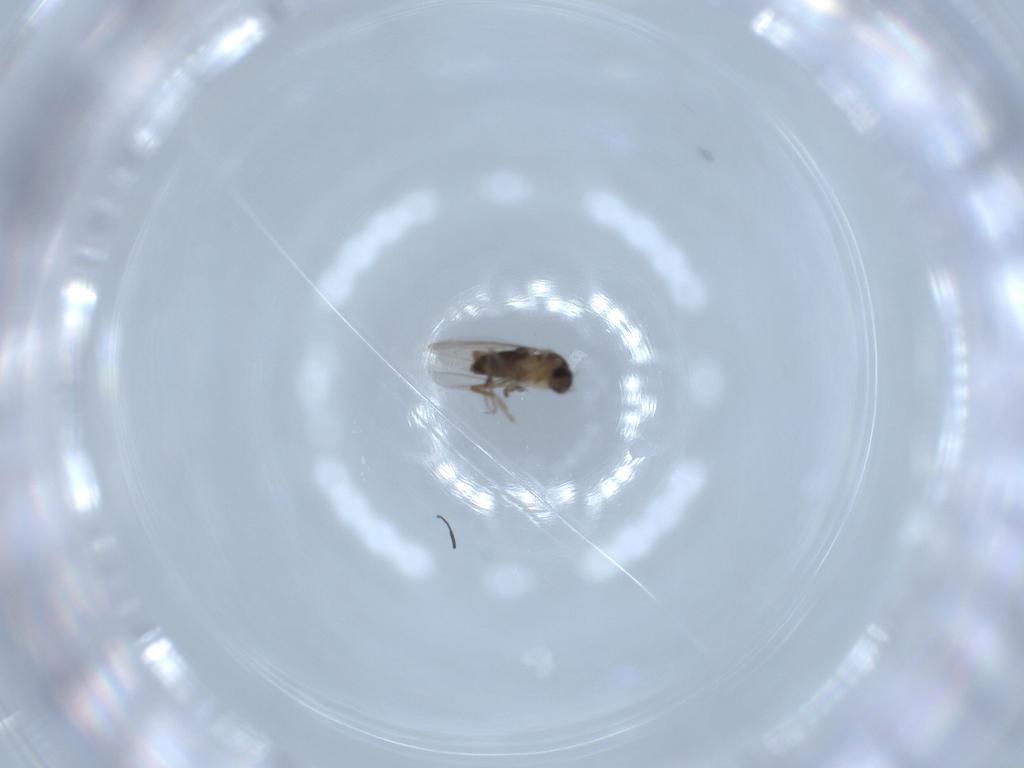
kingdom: Animalia
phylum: Arthropoda
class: Insecta
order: Diptera
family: Phoridae
